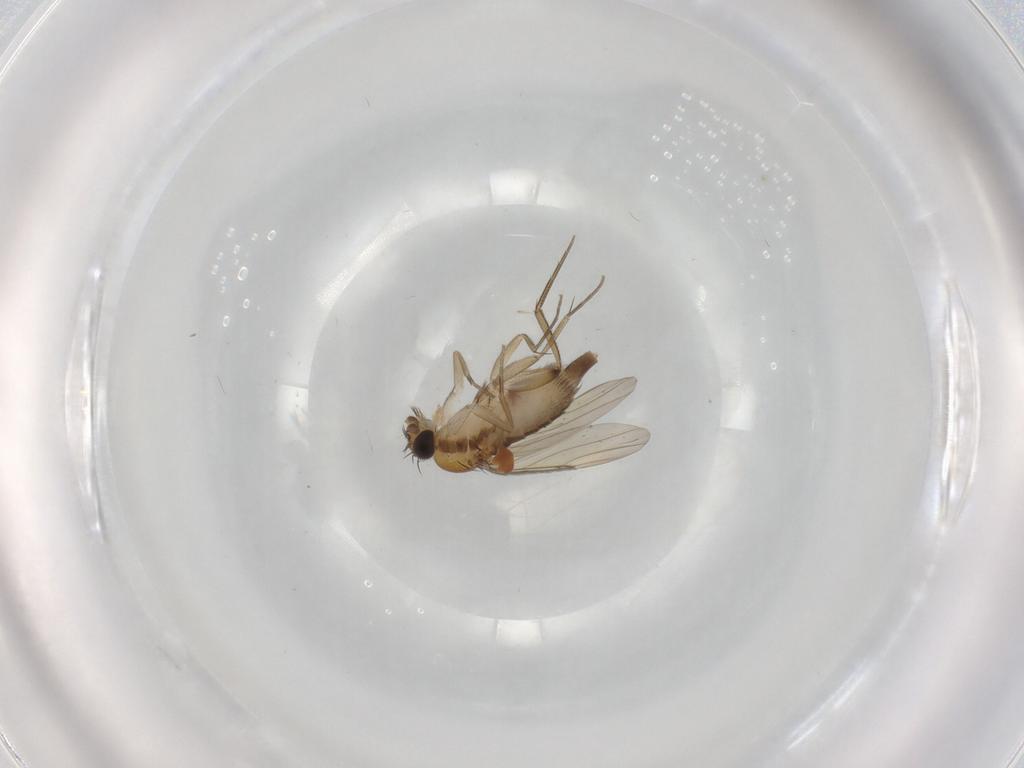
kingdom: Animalia
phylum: Arthropoda
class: Insecta
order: Diptera
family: Phoridae
